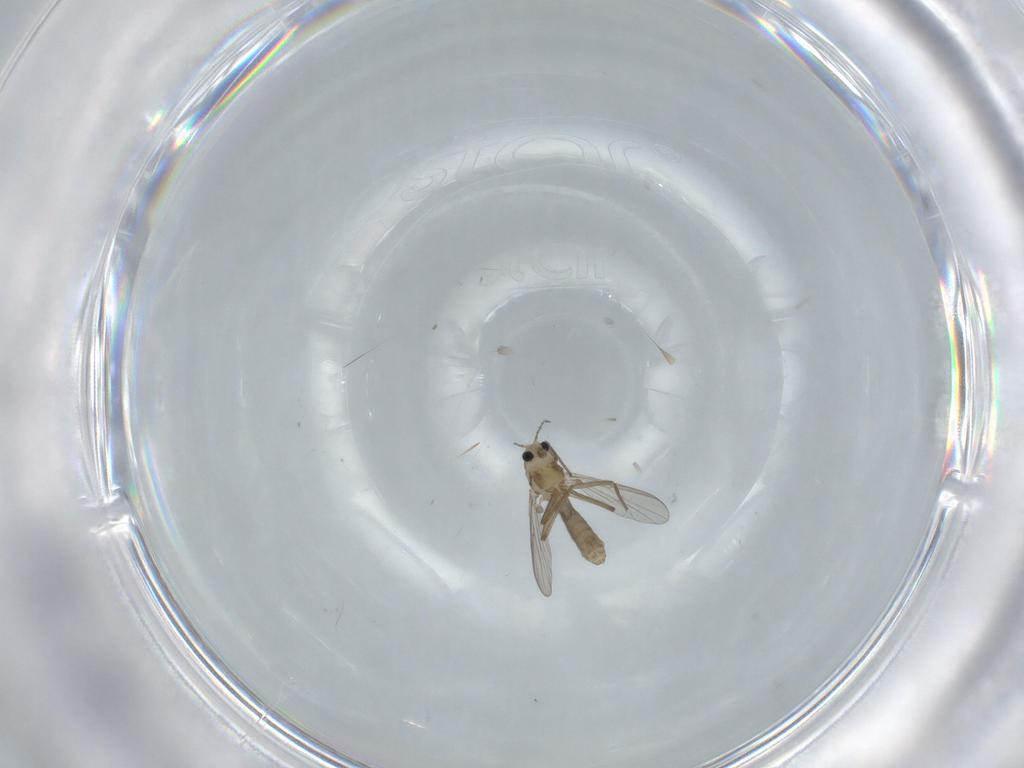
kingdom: Animalia
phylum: Arthropoda
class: Insecta
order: Diptera
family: Chironomidae
